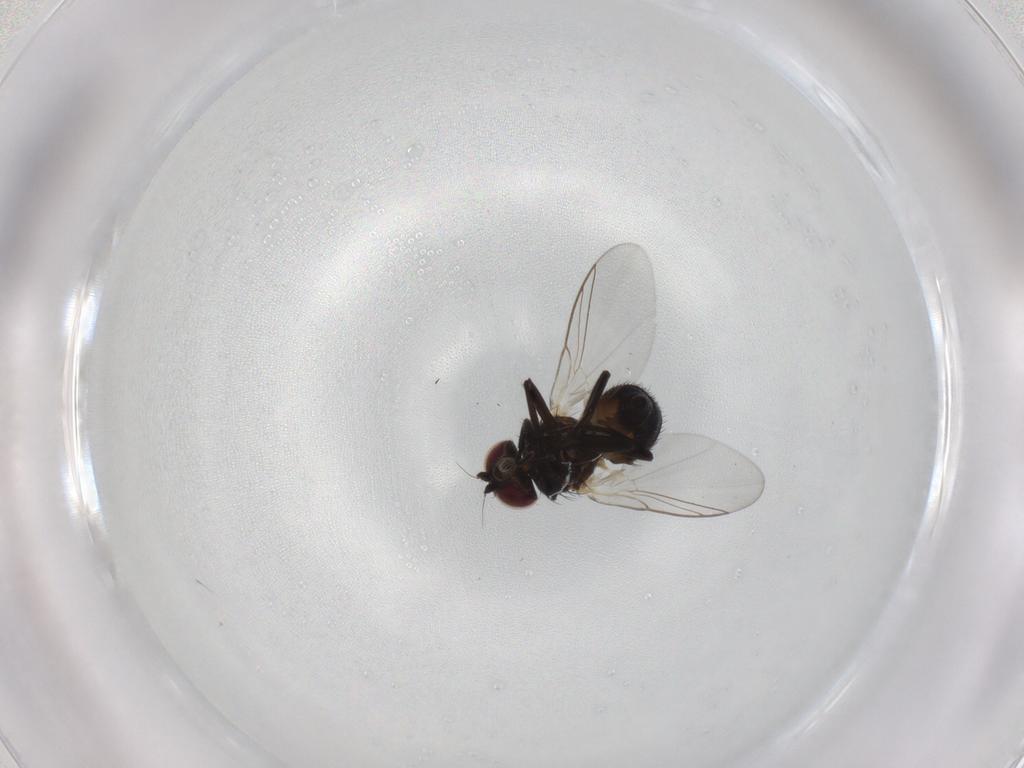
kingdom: Animalia
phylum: Arthropoda
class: Insecta
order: Diptera
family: Agromyzidae
